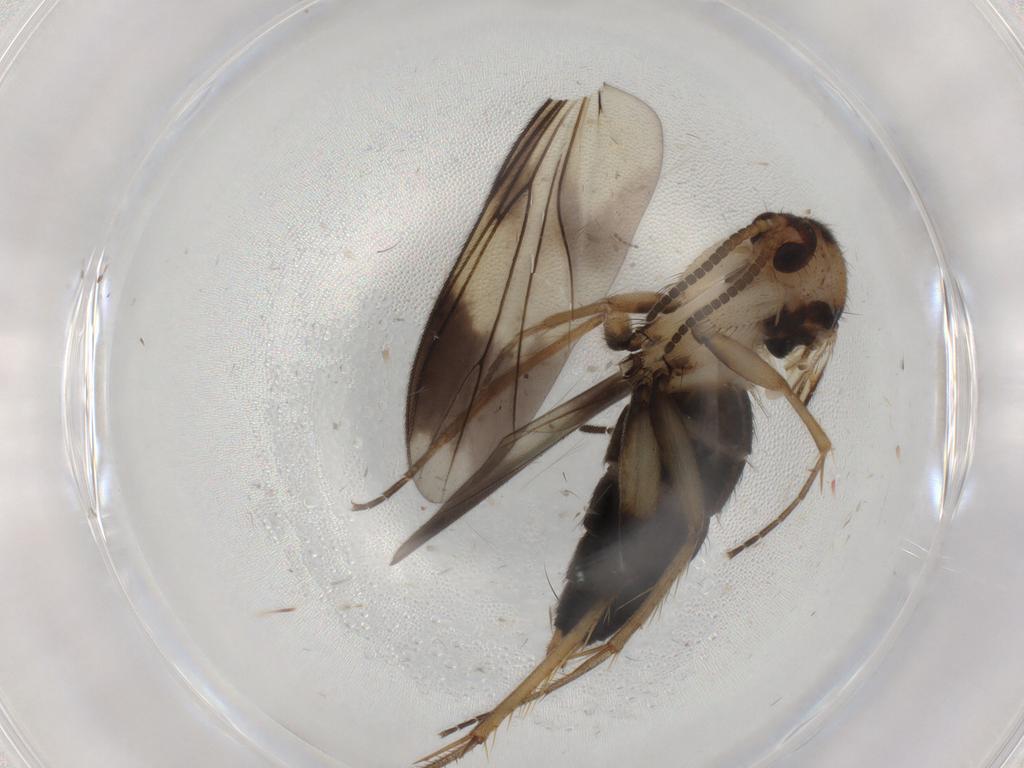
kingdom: Animalia
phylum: Arthropoda
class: Insecta
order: Diptera
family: Mycetophilidae
